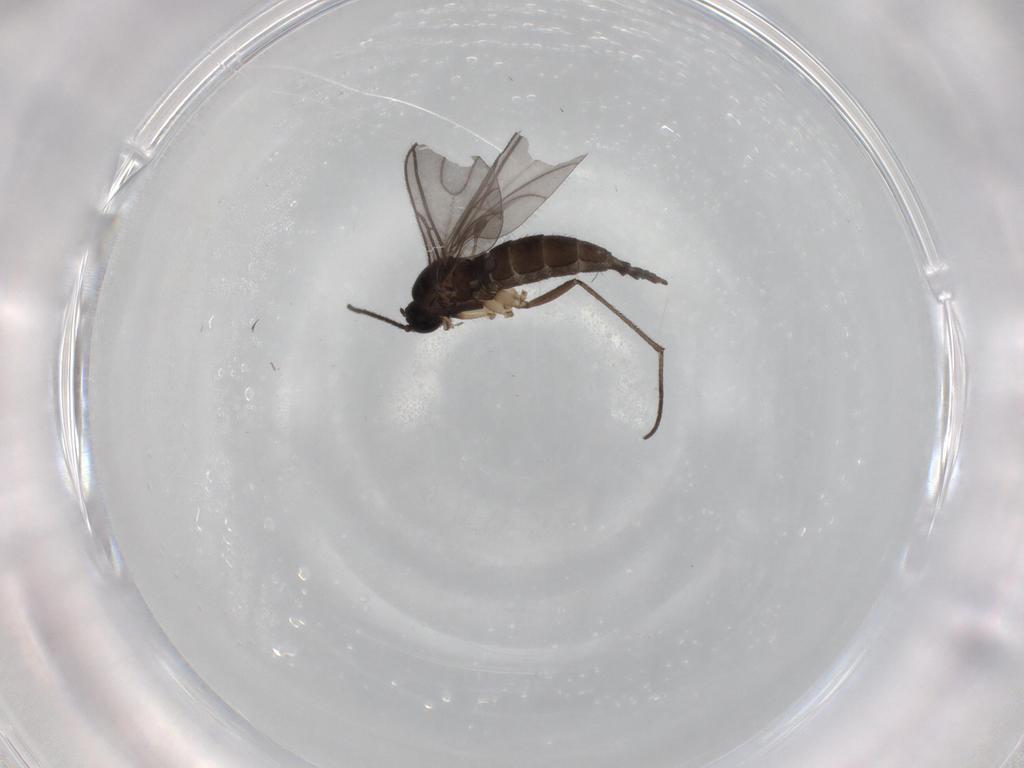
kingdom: Animalia
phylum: Arthropoda
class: Insecta
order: Diptera
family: Sciaridae
